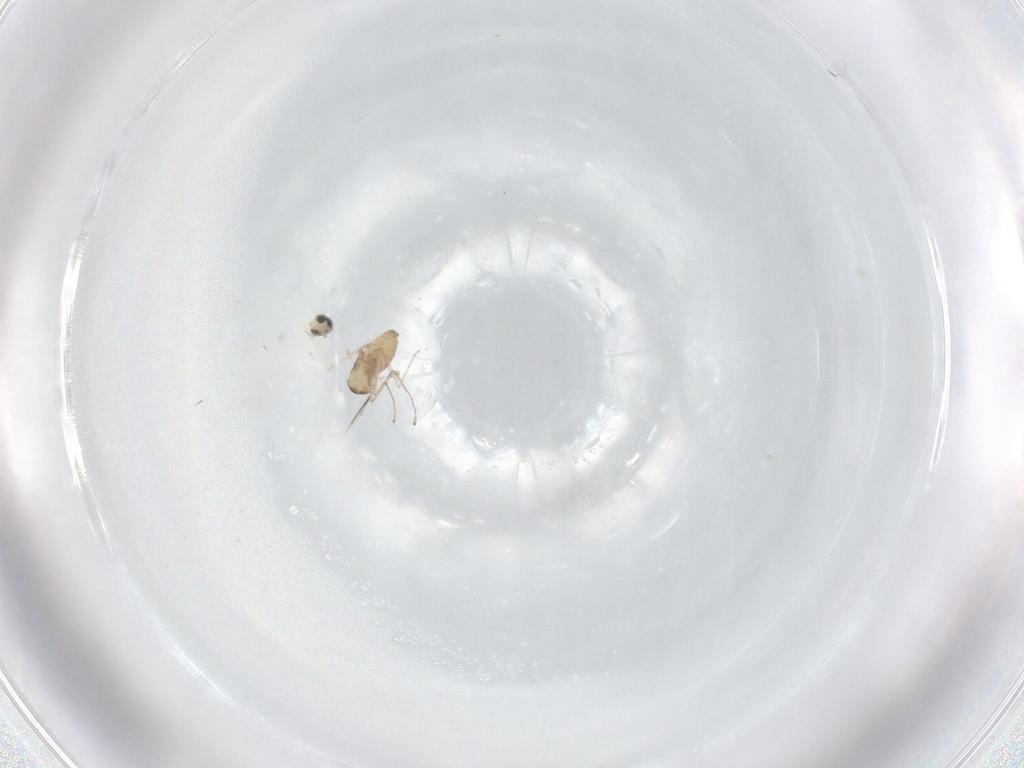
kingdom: Animalia
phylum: Arthropoda
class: Insecta
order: Diptera
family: Cecidomyiidae
